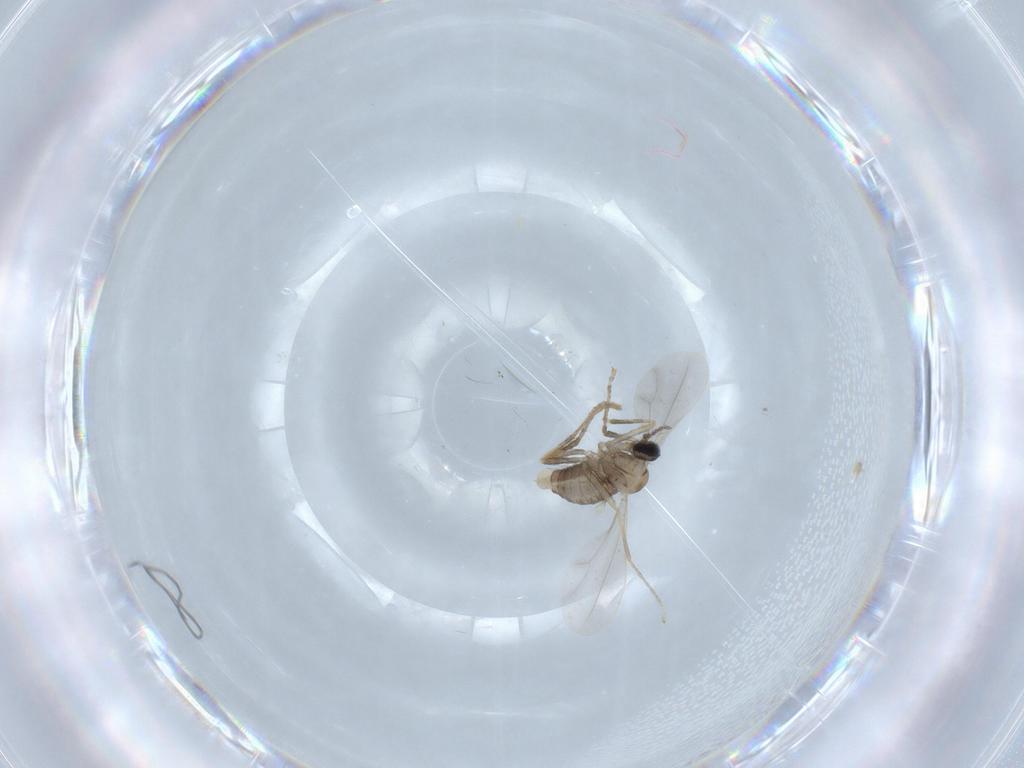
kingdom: Animalia
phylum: Arthropoda
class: Insecta
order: Diptera
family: Cecidomyiidae
